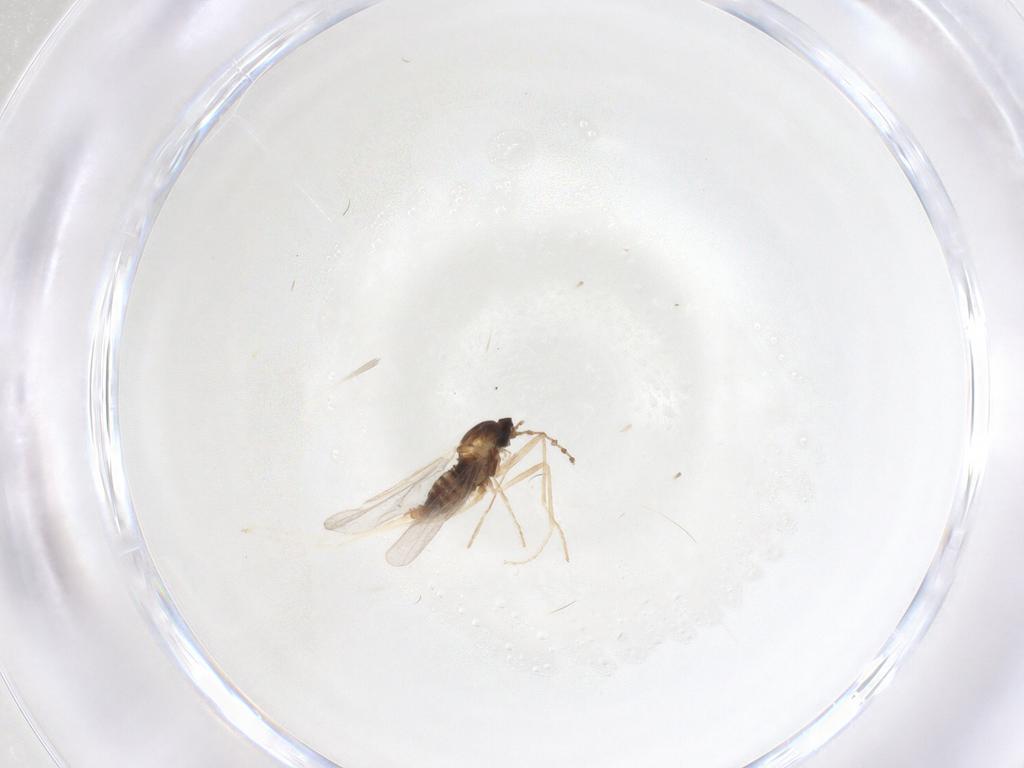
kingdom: Animalia
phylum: Arthropoda
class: Insecta
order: Diptera
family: Cecidomyiidae
